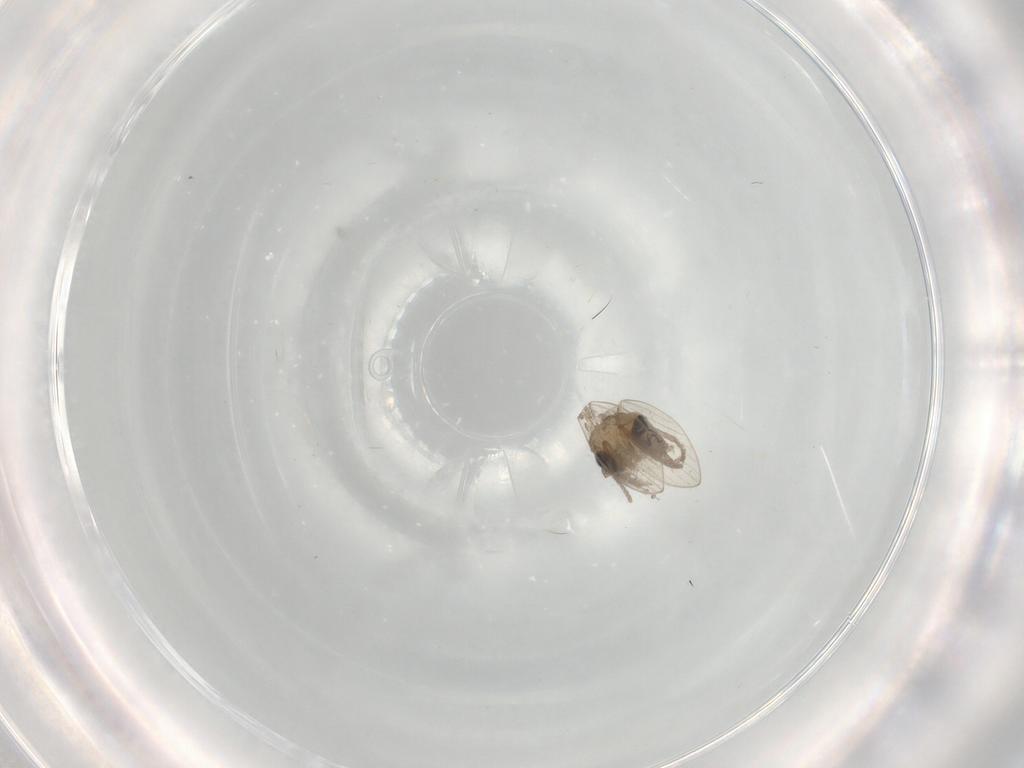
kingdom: Animalia
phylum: Arthropoda
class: Insecta
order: Diptera
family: Psychodidae
